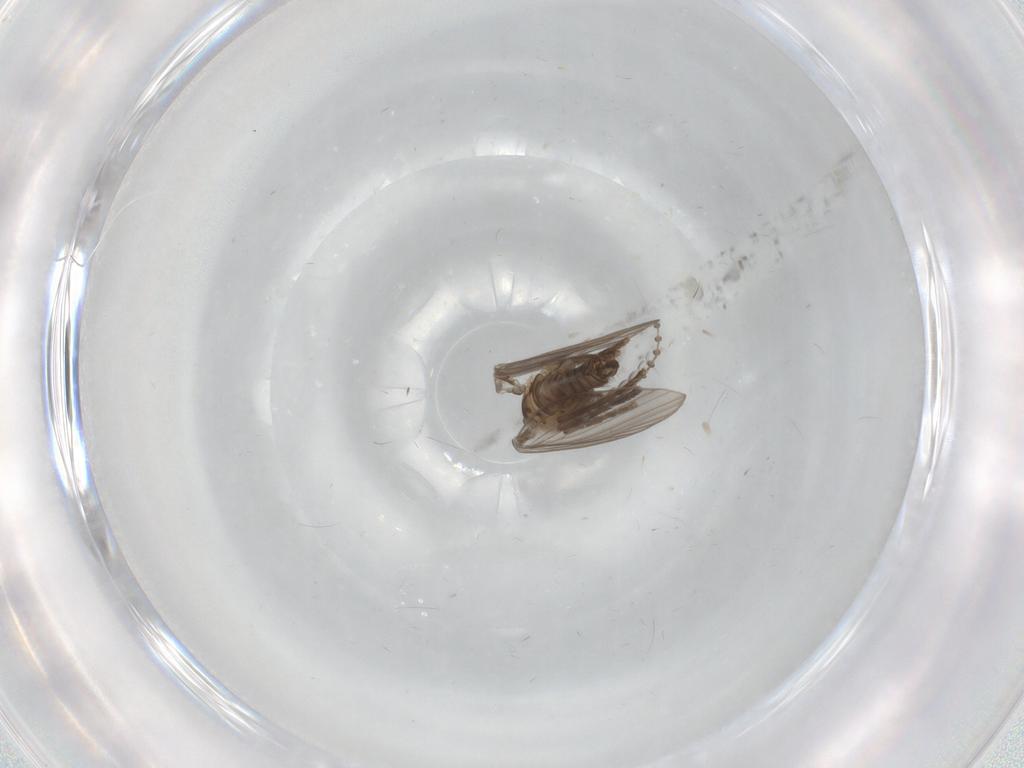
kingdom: Animalia
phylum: Arthropoda
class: Insecta
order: Diptera
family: Psychodidae
